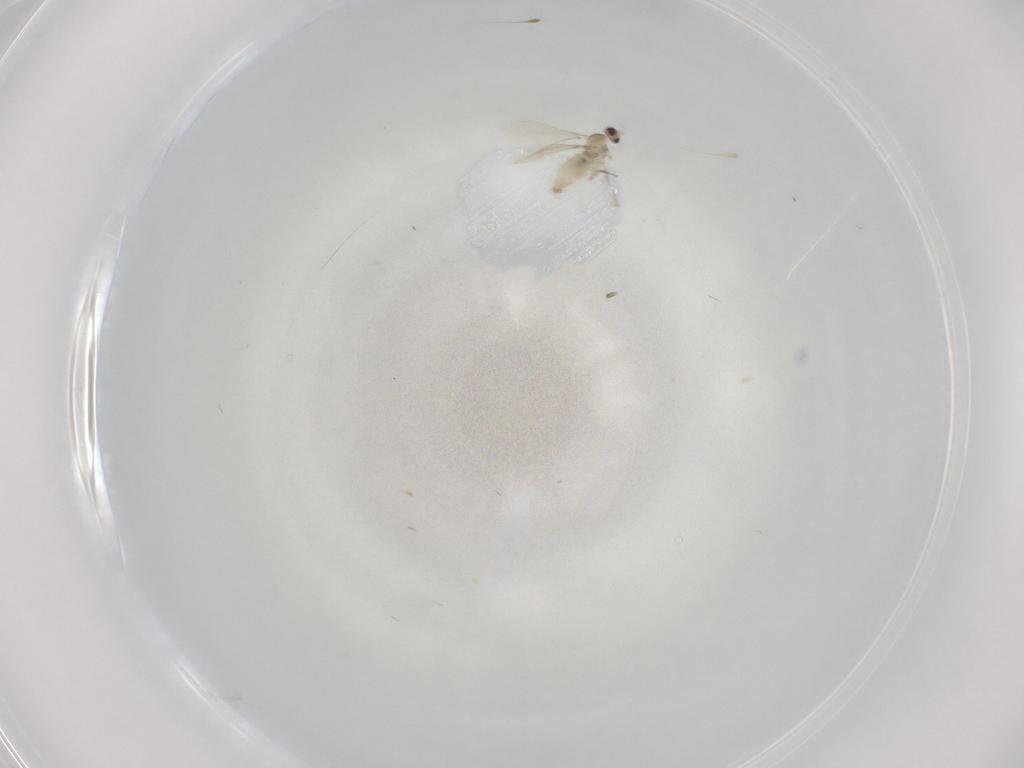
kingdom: Animalia
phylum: Arthropoda
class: Insecta
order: Diptera
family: Cecidomyiidae
